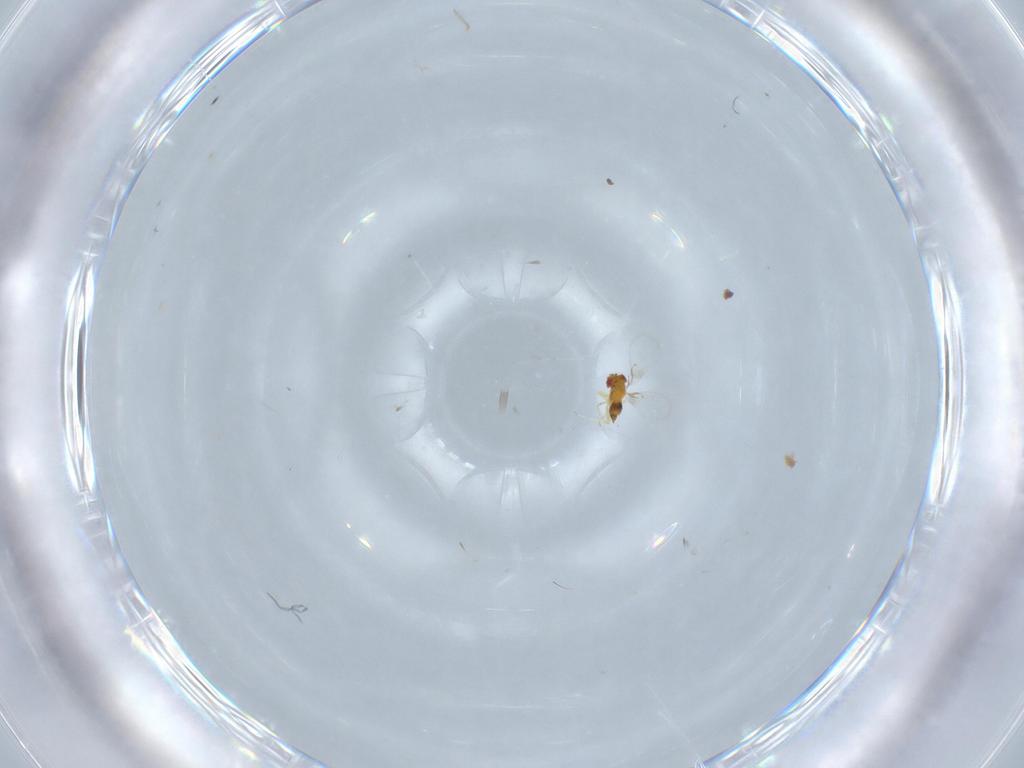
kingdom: Animalia
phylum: Arthropoda
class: Insecta
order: Hymenoptera
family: Trichogrammatidae
